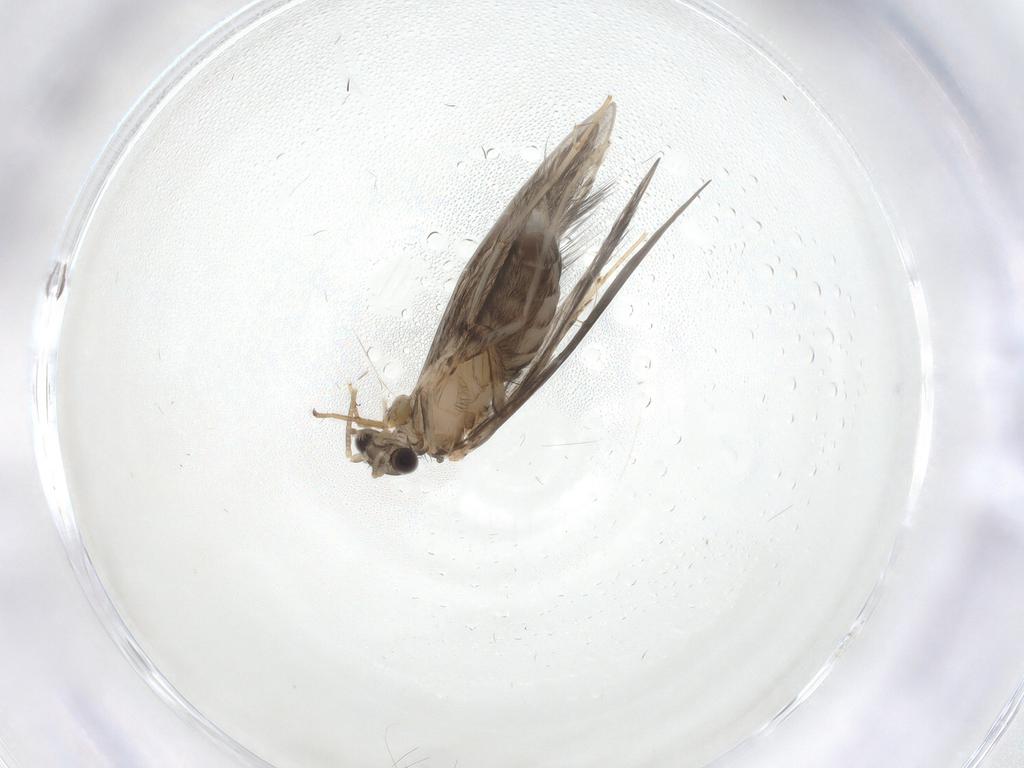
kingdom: Animalia
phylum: Arthropoda
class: Insecta
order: Trichoptera
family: Hydroptilidae
